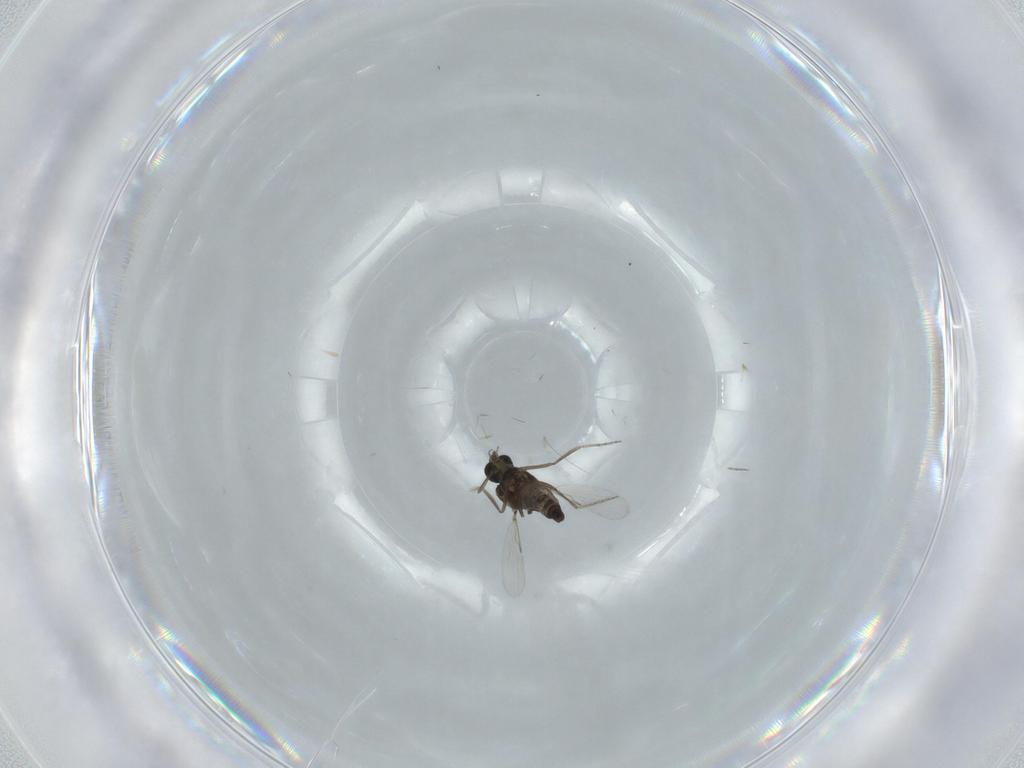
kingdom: Animalia
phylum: Arthropoda
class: Insecta
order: Diptera
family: Ceratopogonidae
